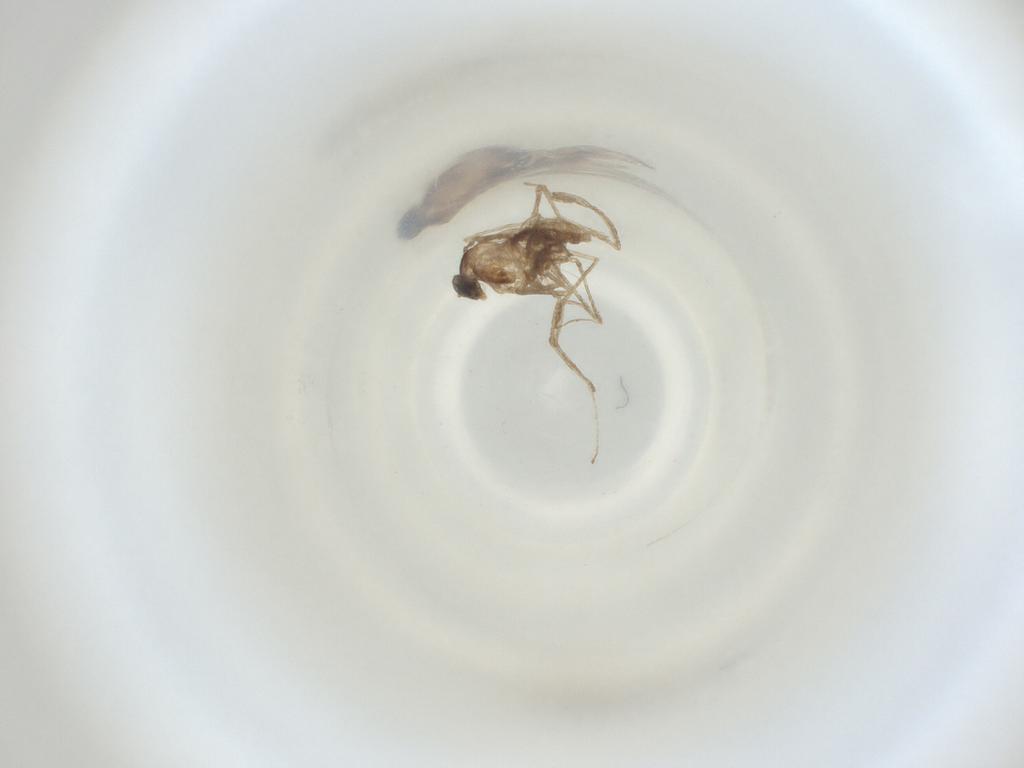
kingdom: Animalia
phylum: Arthropoda
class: Insecta
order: Diptera
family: Cecidomyiidae
